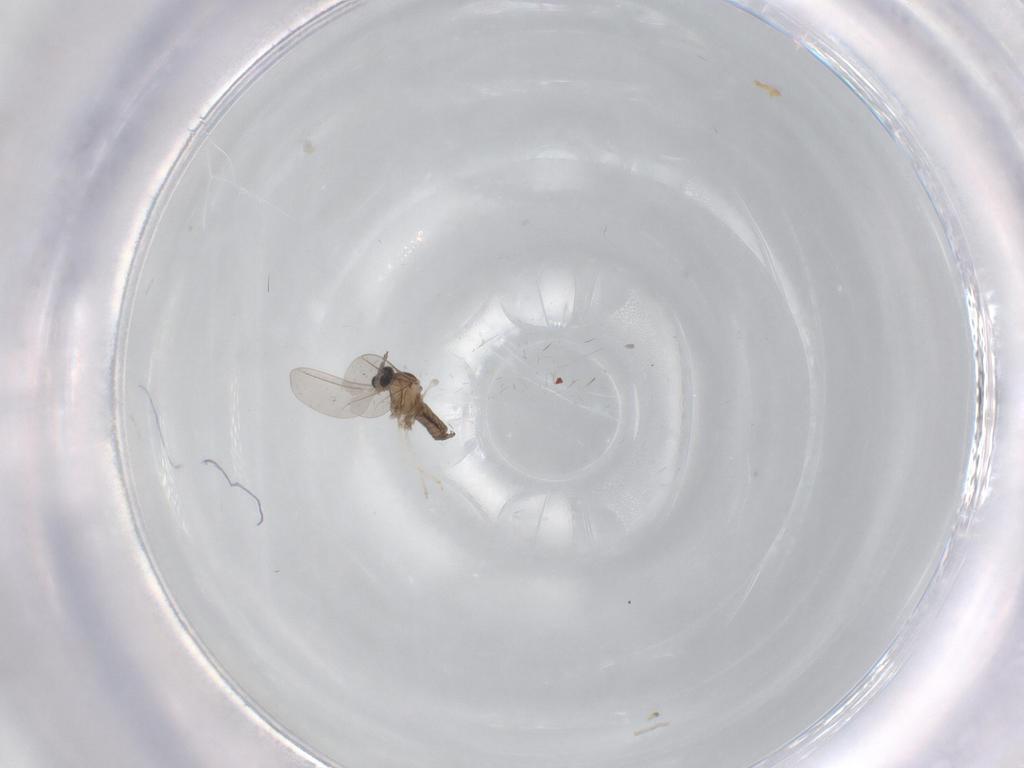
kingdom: Animalia
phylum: Arthropoda
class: Insecta
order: Diptera
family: Cecidomyiidae
